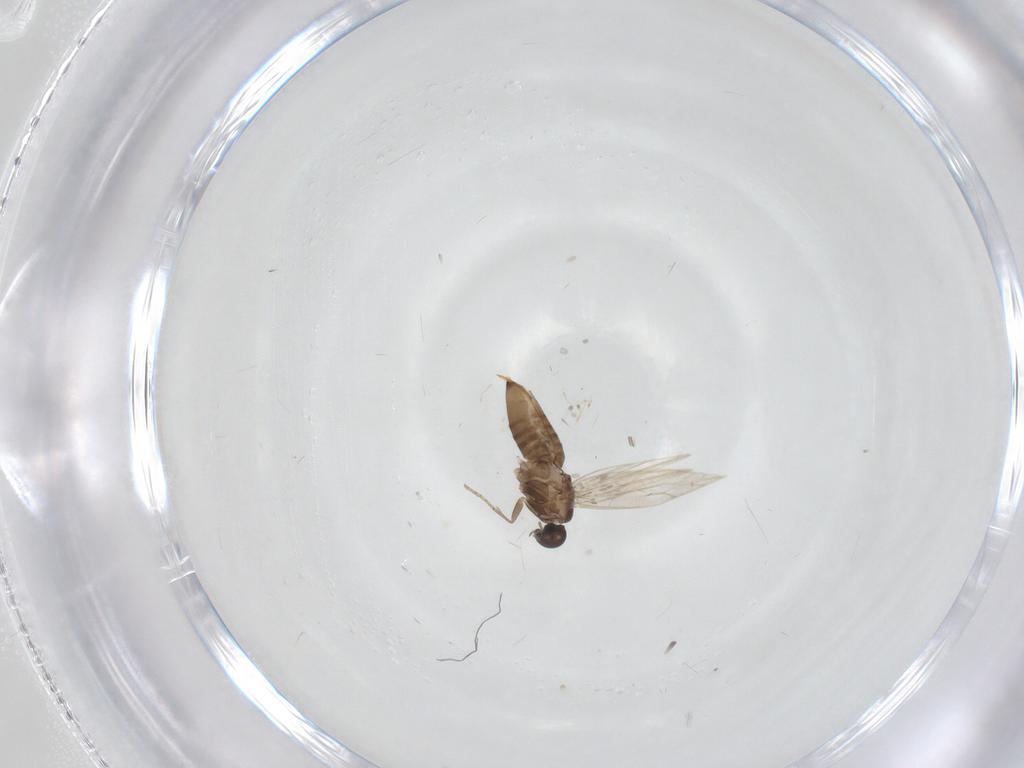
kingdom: Animalia
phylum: Arthropoda
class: Insecta
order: Lepidoptera
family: Heliozelidae
